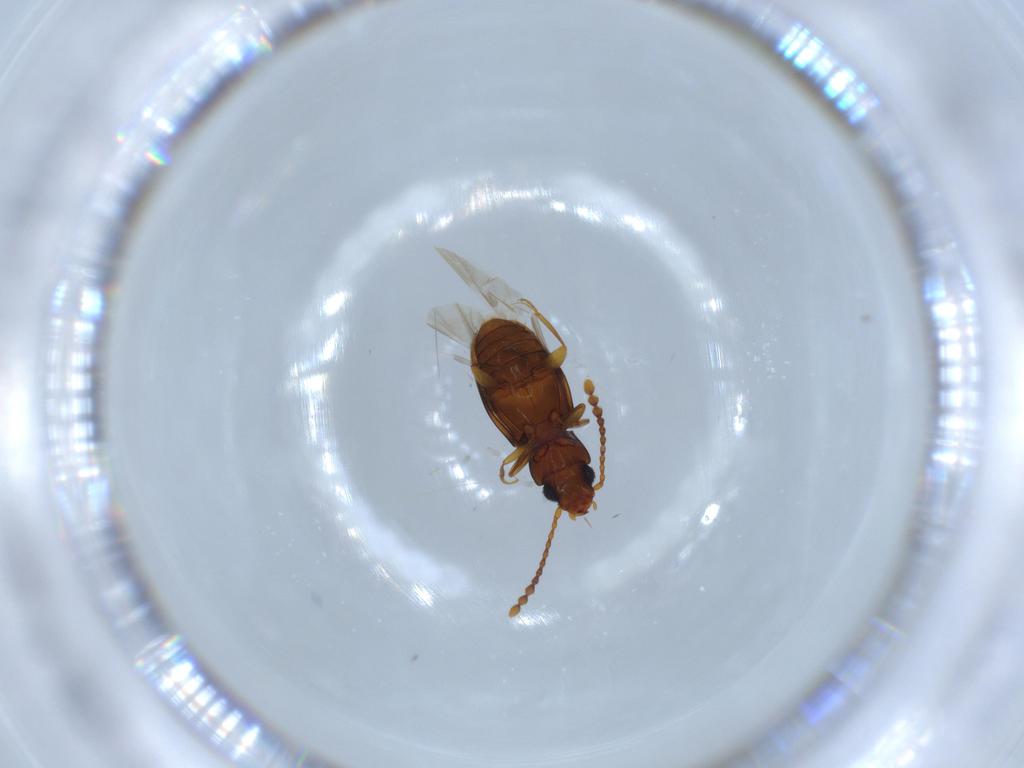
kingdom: Animalia
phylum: Arthropoda
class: Insecta
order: Coleoptera
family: Laemophloeidae
